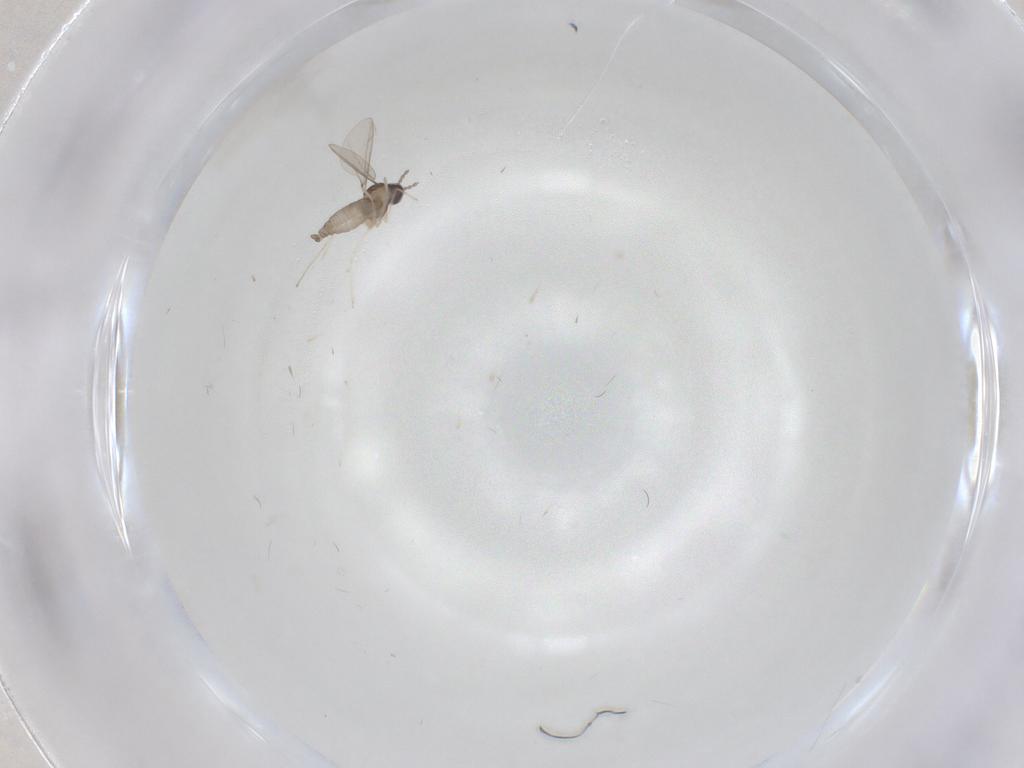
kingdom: Animalia
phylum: Arthropoda
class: Insecta
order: Diptera
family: Cecidomyiidae
